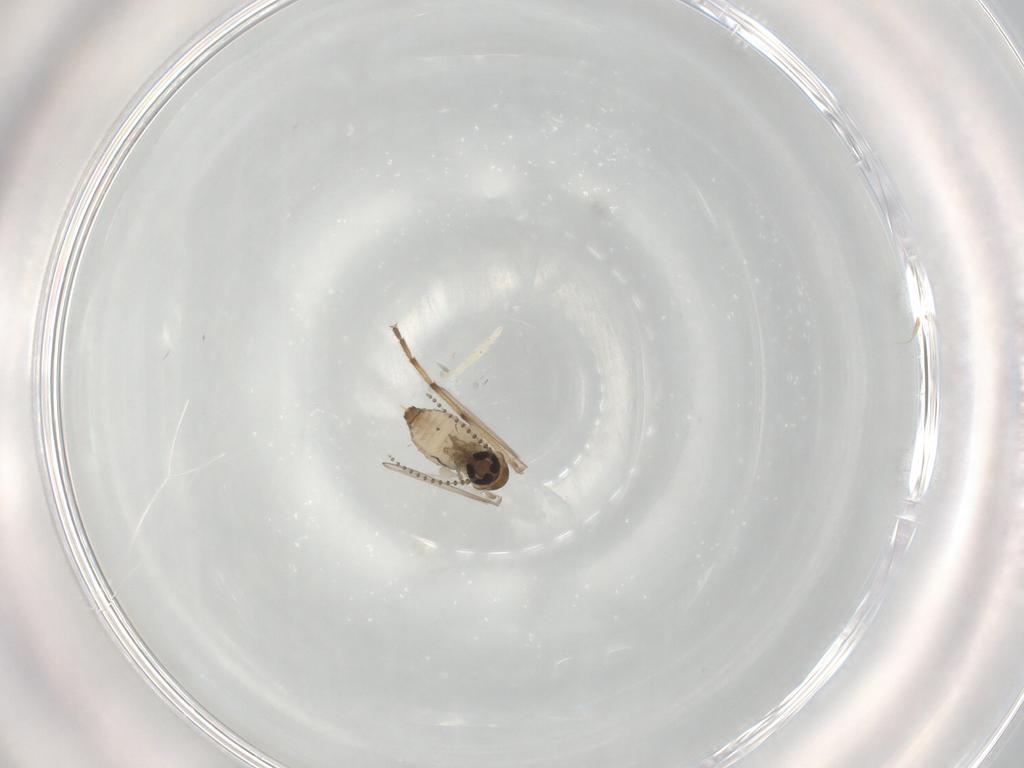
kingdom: Animalia
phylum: Arthropoda
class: Insecta
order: Diptera
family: Psychodidae
